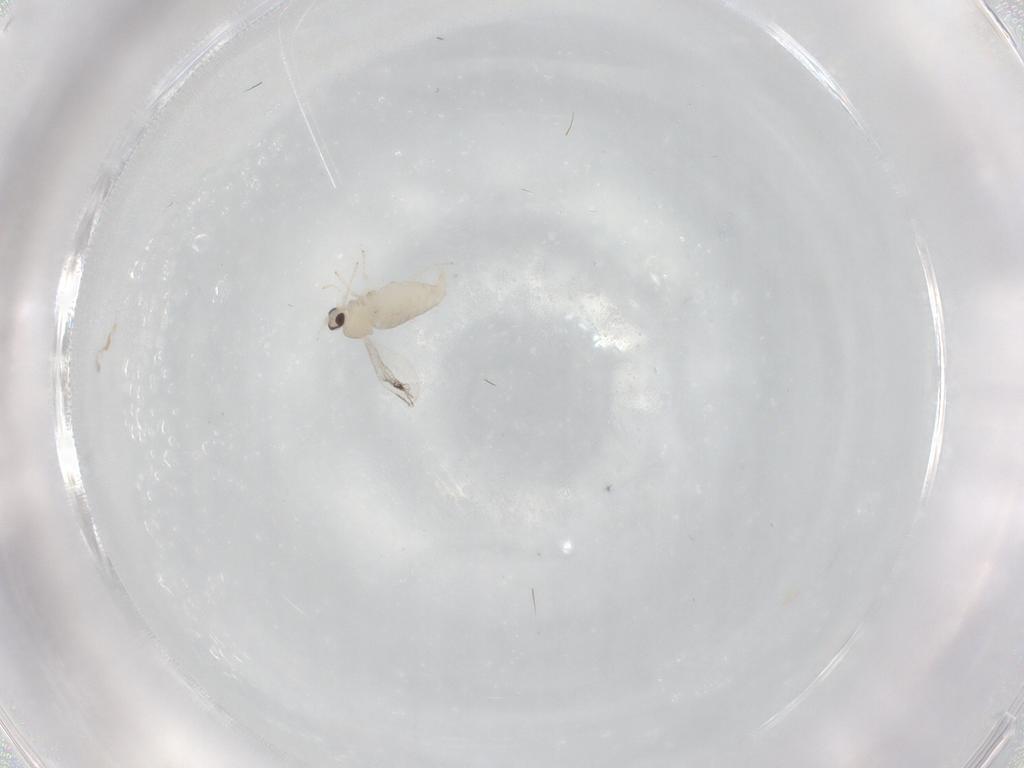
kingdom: Animalia
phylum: Arthropoda
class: Insecta
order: Diptera
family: Cecidomyiidae
